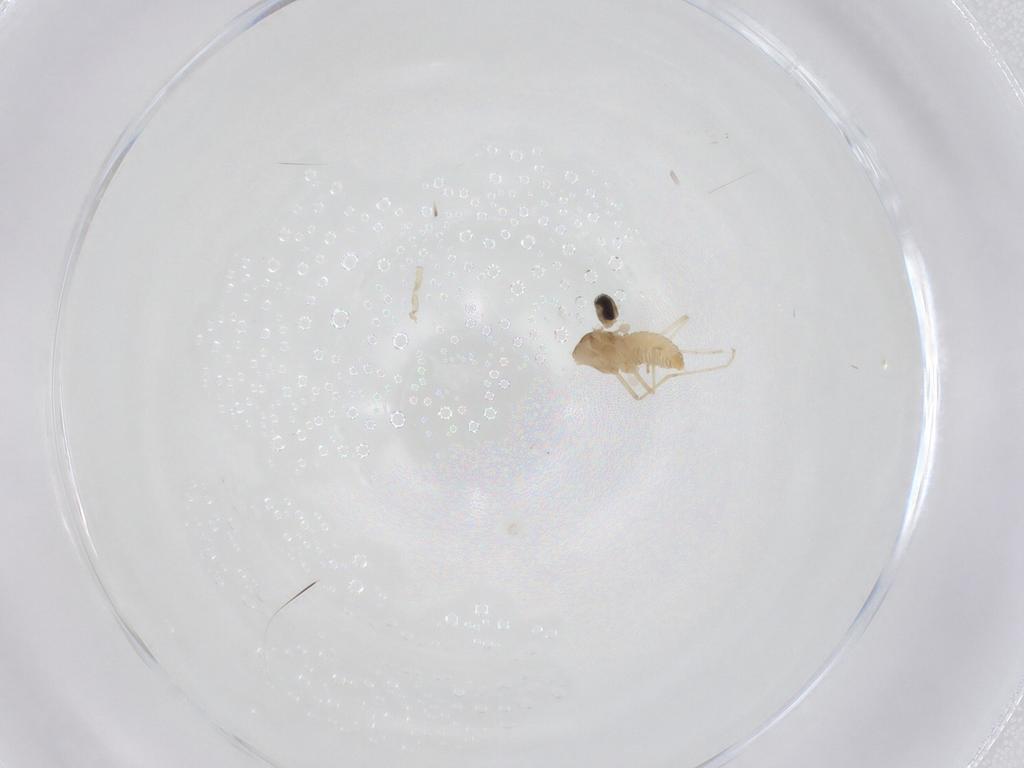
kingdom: Animalia
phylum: Arthropoda
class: Insecta
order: Diptera
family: Cecidomyiidae
